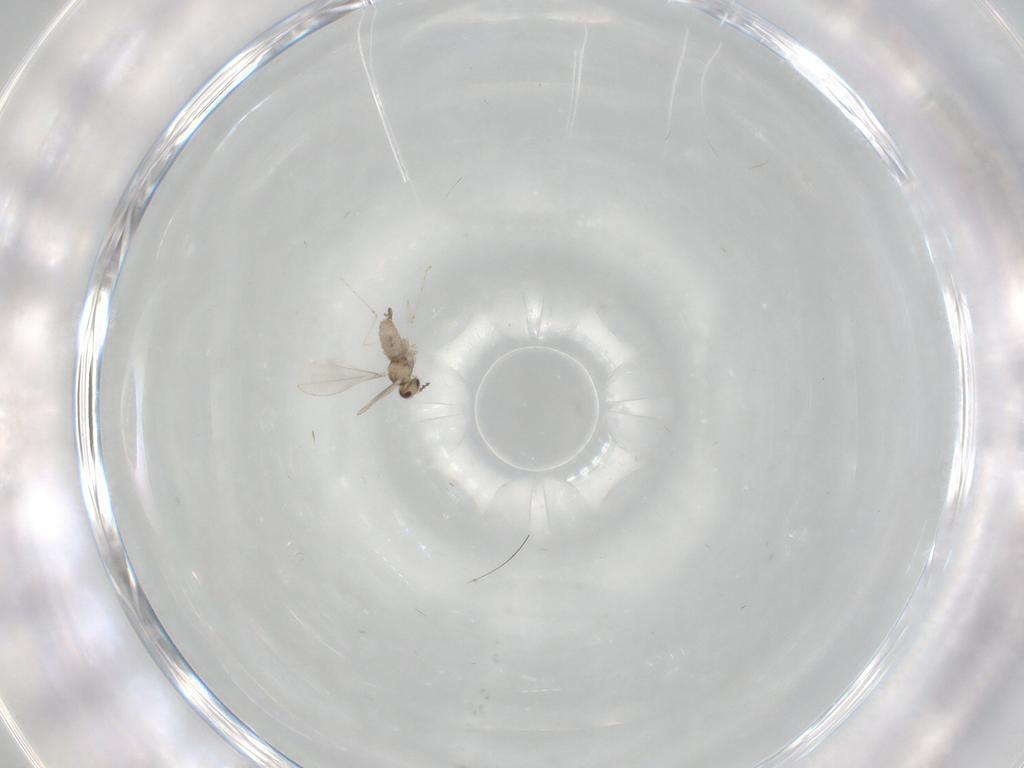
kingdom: Animalia
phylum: Arthropoda
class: Insecta
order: Diptera
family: Cecidomyiidae
